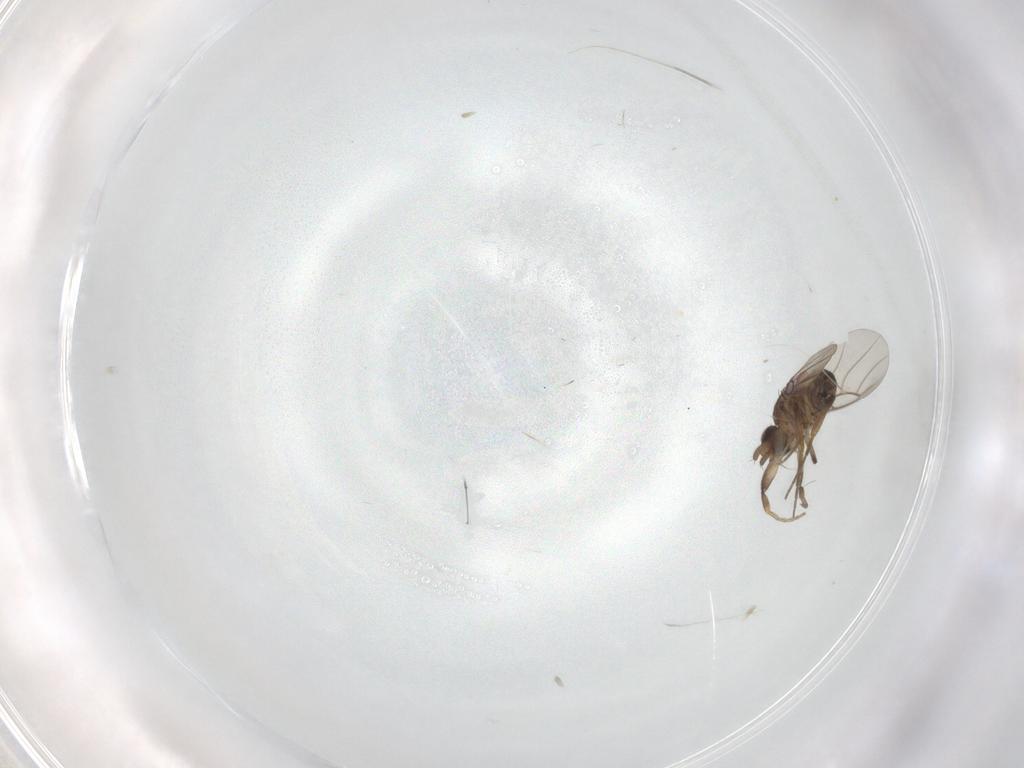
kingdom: Animalia
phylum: Arthropoda
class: Insecta
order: Diptera
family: Phoridae
